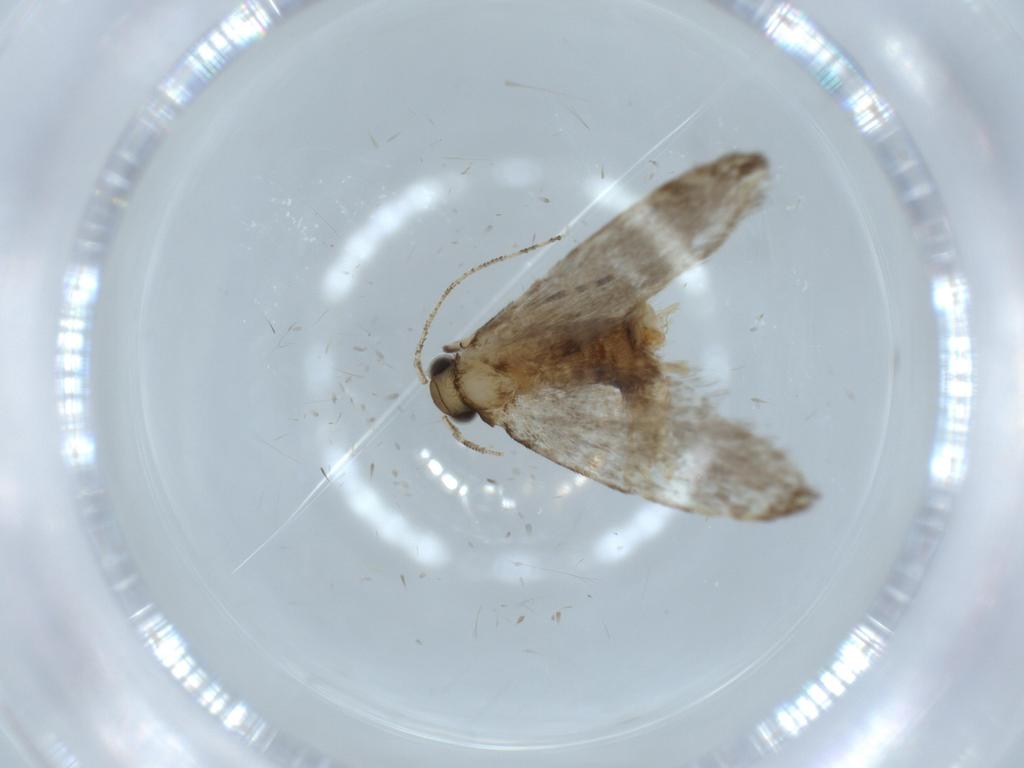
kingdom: Animalia
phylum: Arthropoda
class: Insecta
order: Lepidoptera
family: Tineidae
